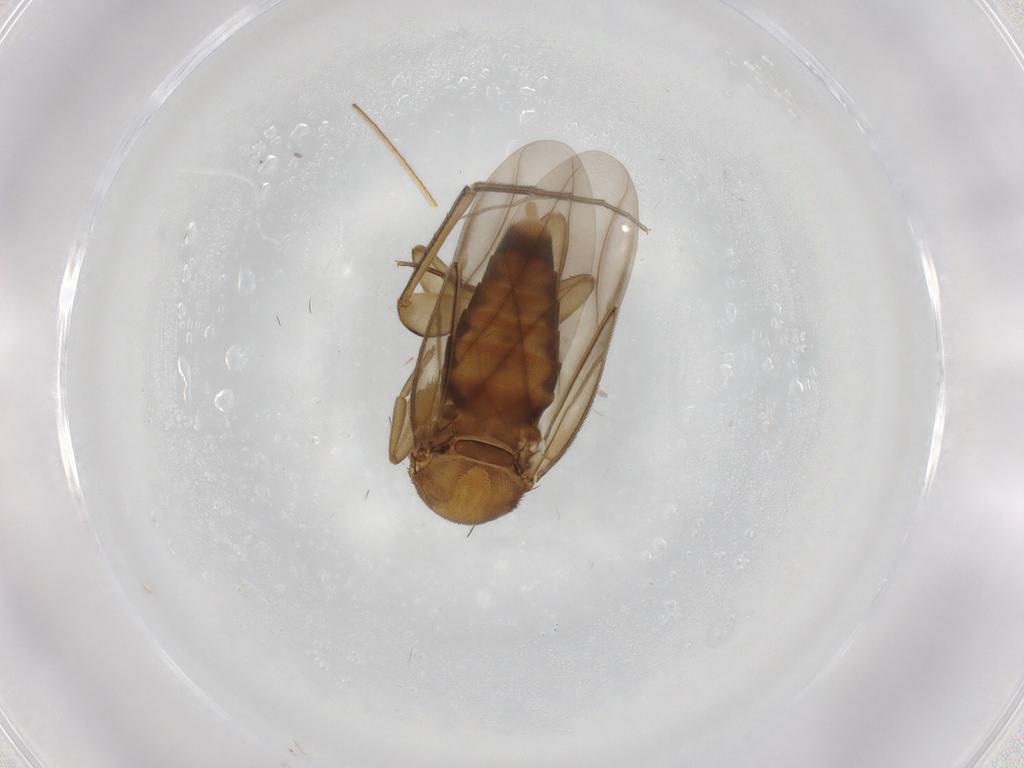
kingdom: Animalia
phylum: Arthropoda
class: Insecta
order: Diptera
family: Psychodidae
